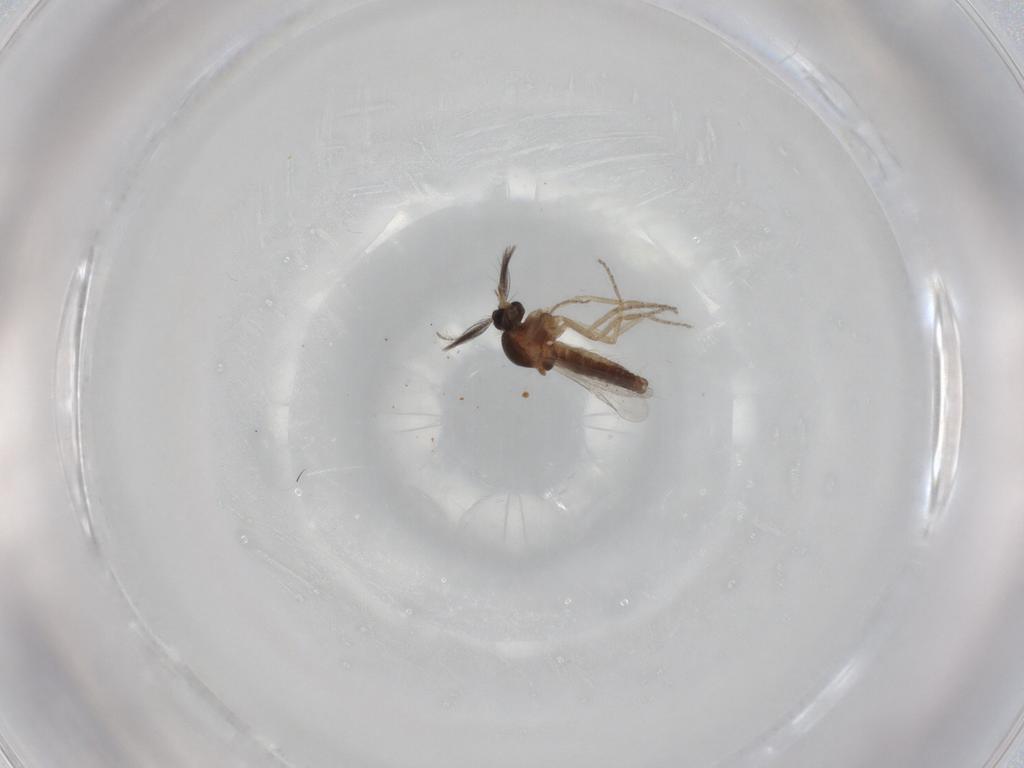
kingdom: Animalia
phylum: Arthropoda
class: Insecta
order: Diptera
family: Ceratopogonidae
